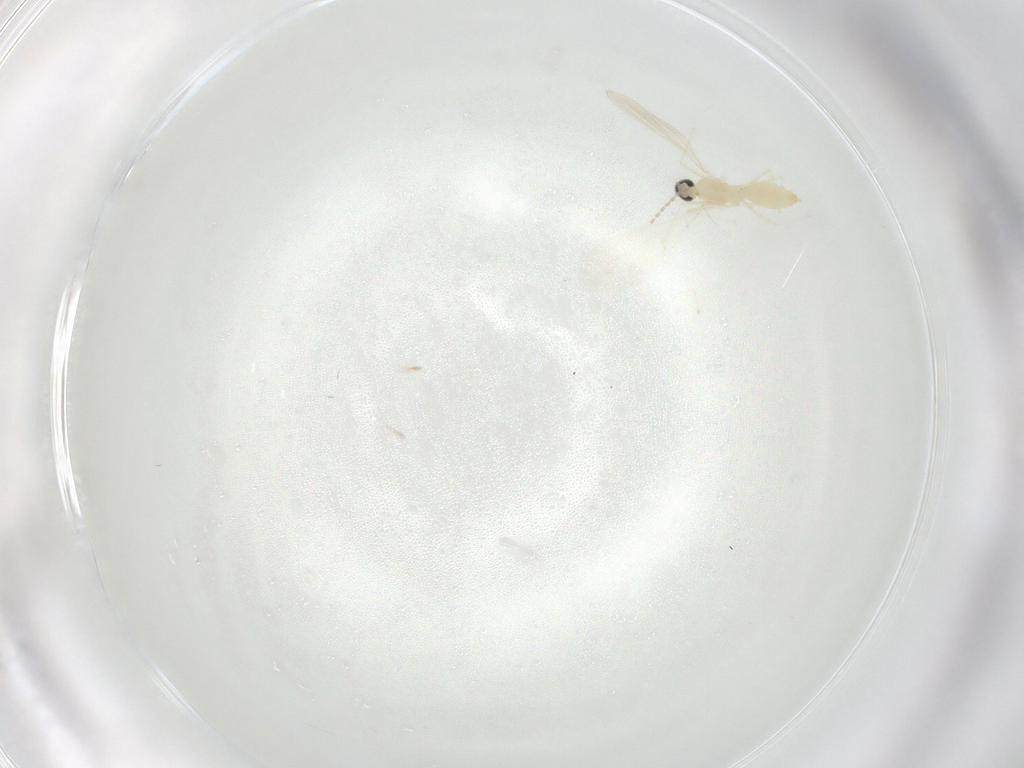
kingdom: Animalia
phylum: Arthropoda
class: Insecta
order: Diptera
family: Cecidomyiidae
